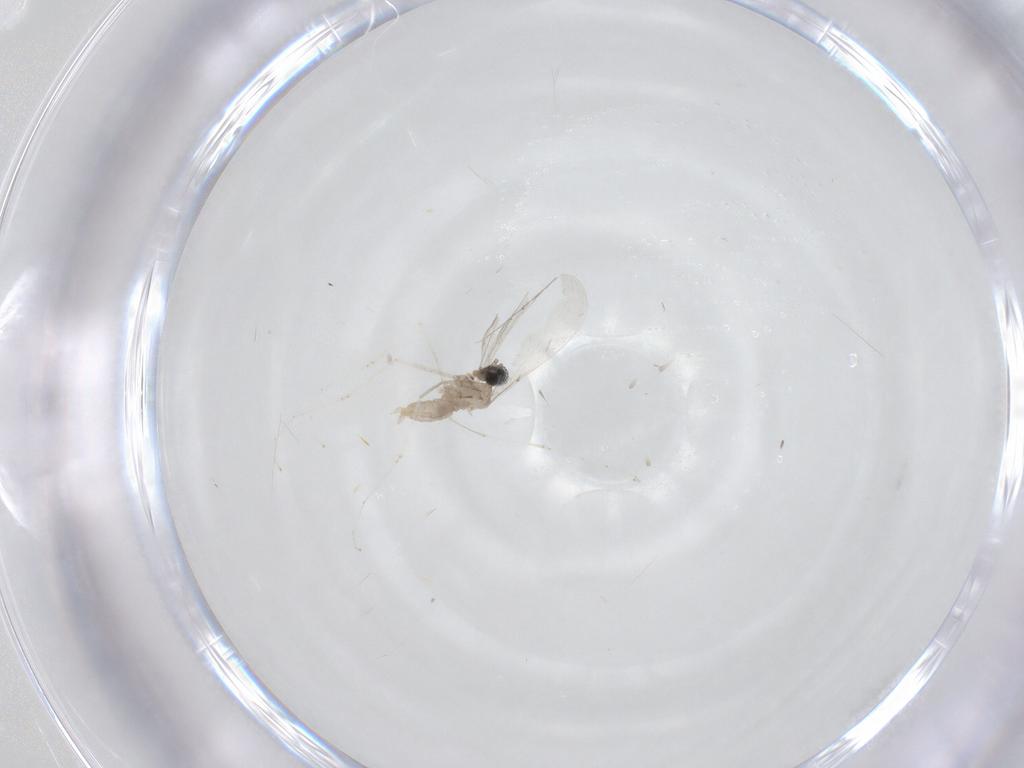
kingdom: Animalia
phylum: Arthropoda
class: Insecta
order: Diptera
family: Cecidomyiidae
